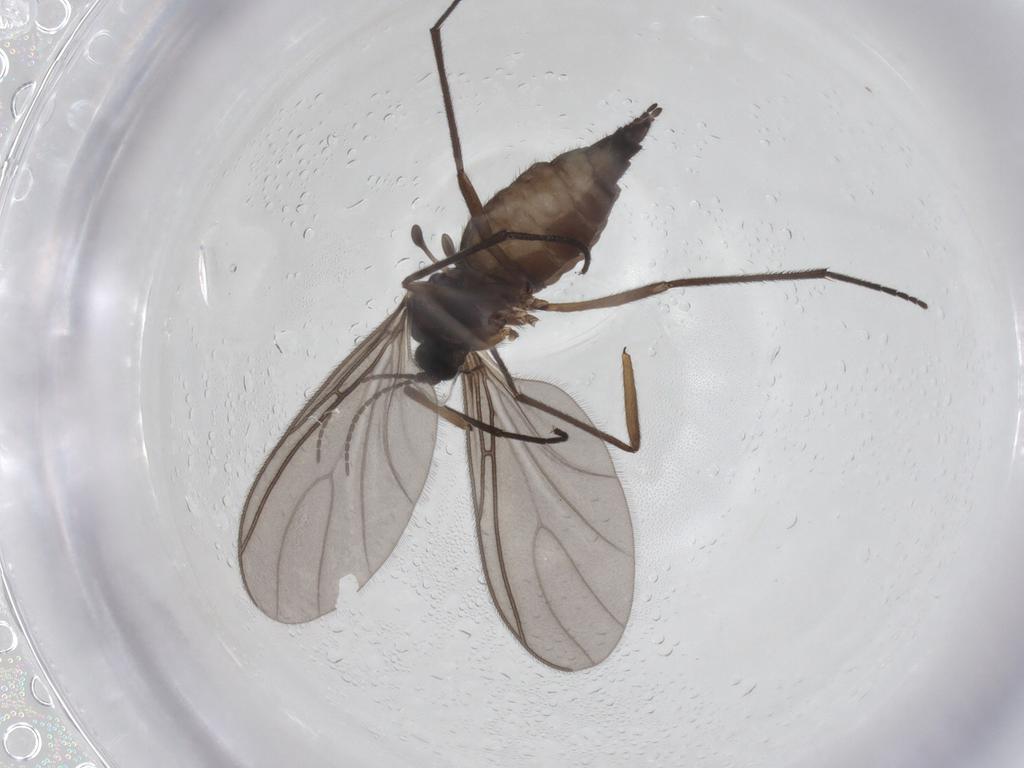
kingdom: Animalia
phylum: Arthropoda
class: Insecta
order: Diptera
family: Sciaridae
